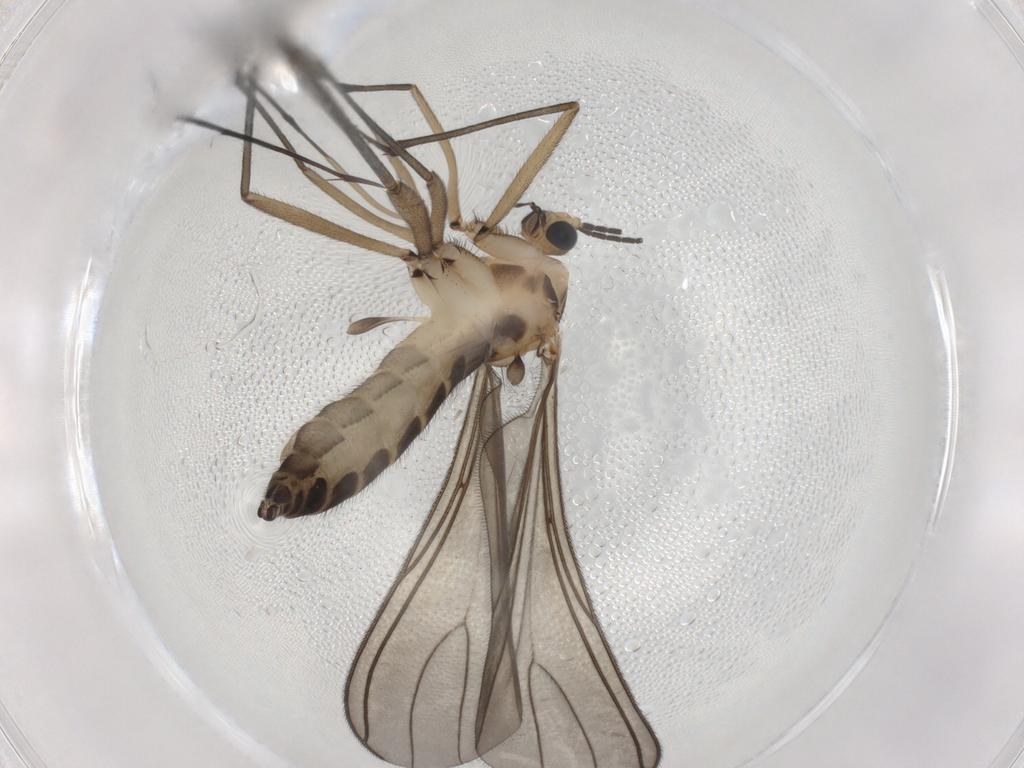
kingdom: Animalia
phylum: Arthropoda
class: Insecta
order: Diptera
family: Sciaridae
